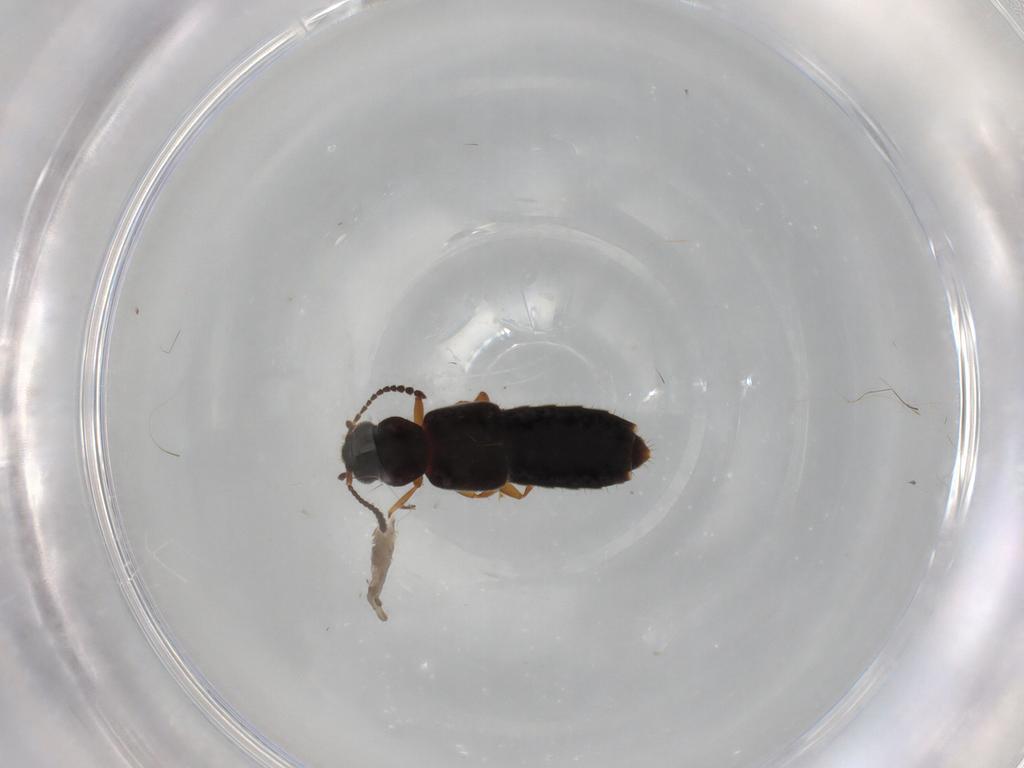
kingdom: Animalia
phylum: Arthropoda
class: Insecta
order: Coleoptera
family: Staphylinidae
